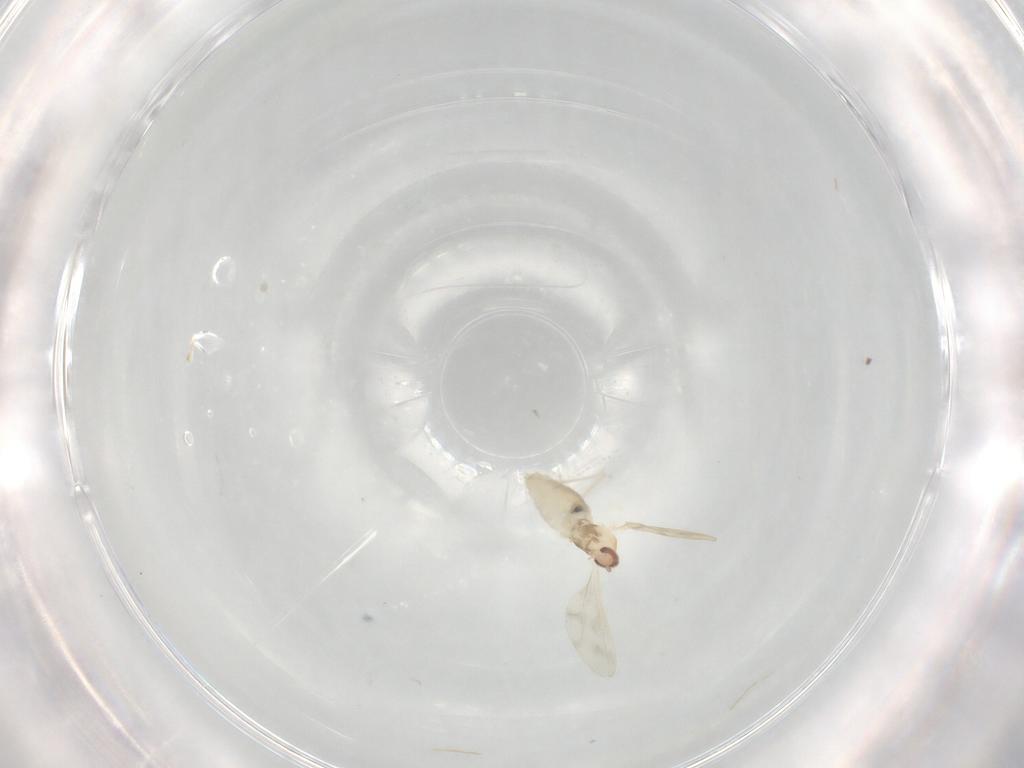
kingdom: Animalia
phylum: Arthropoda
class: Insecta
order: Diptera
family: Cecidomyiidae
